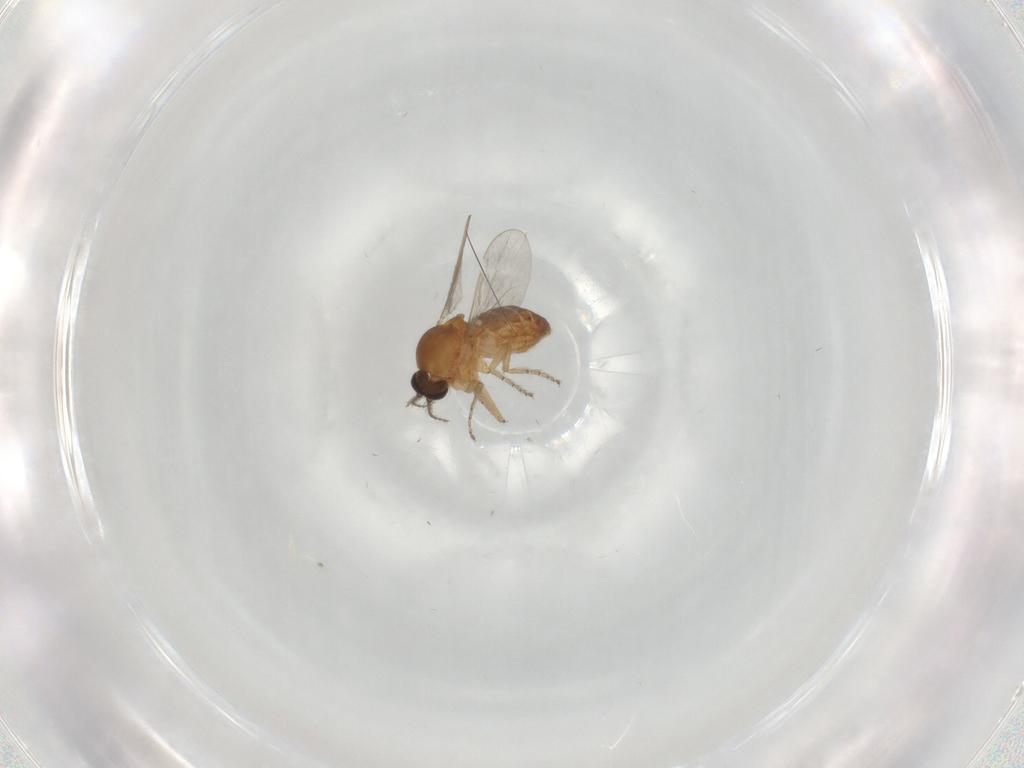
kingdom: Animalia
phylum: Arthropoda
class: Insecta
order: Diptera
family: Ceratopogonidae
